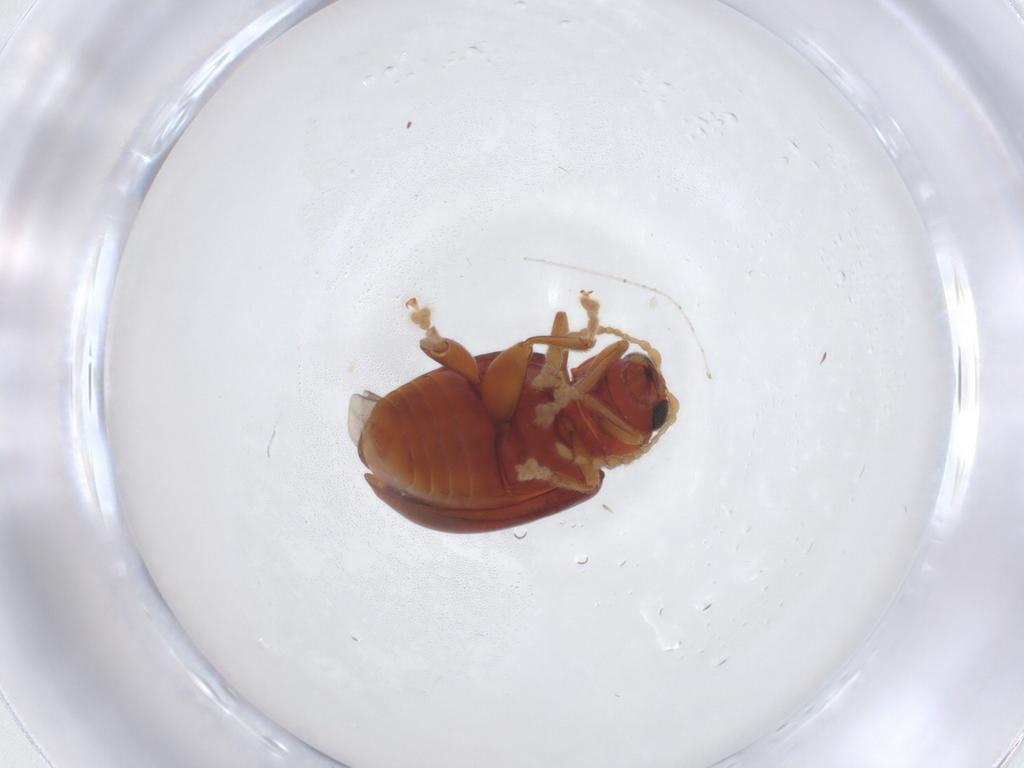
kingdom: Animalia
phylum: Arthropoda
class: Insecta
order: Coleoptera
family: Chrysomelidae
